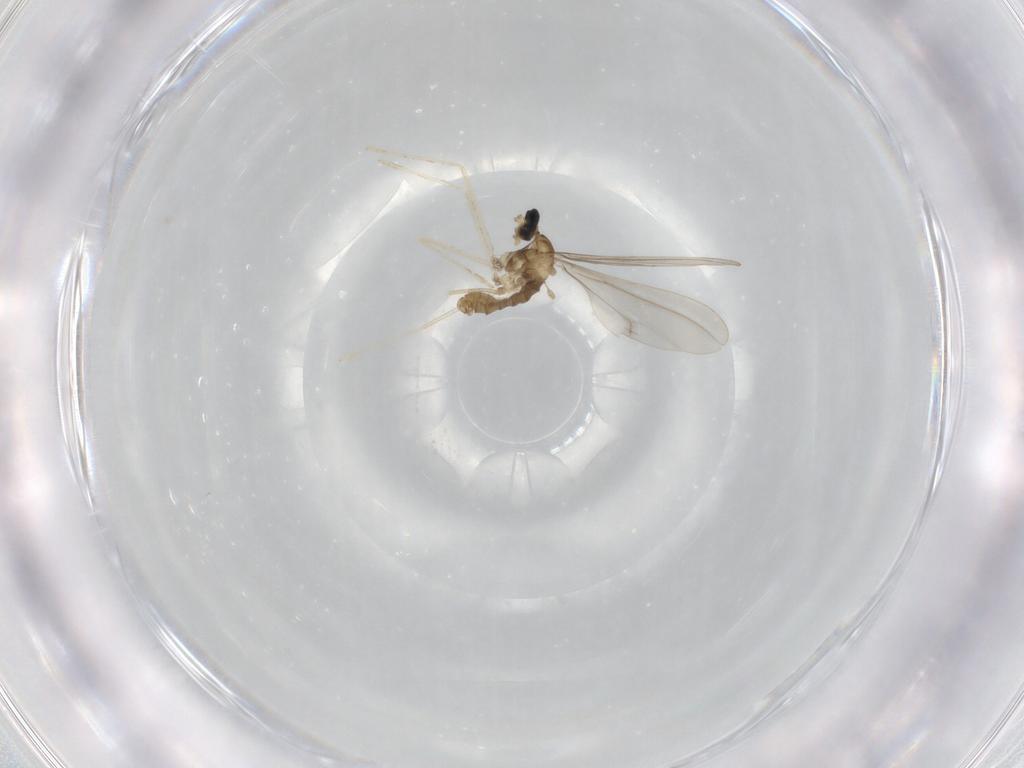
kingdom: Animalia
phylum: Arthropoda
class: Insecta
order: Diptera
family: Cecidomyiidae
